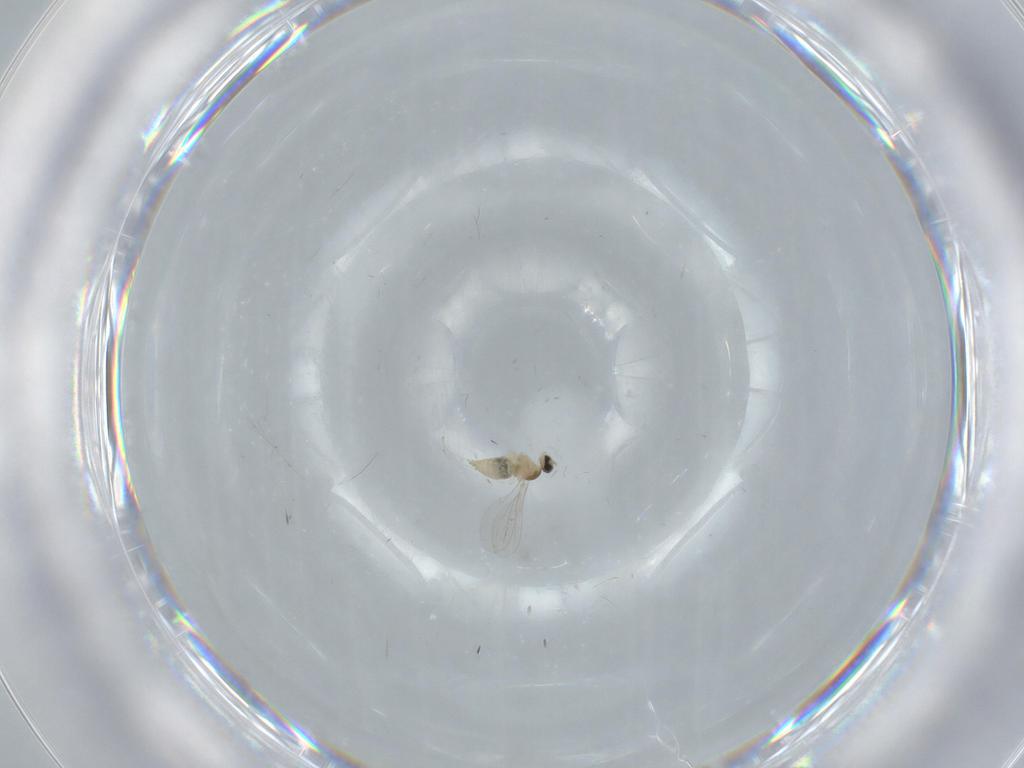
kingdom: Animalia
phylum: Arthropoda
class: Insecta
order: Diptera
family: Cecidomyiidae
